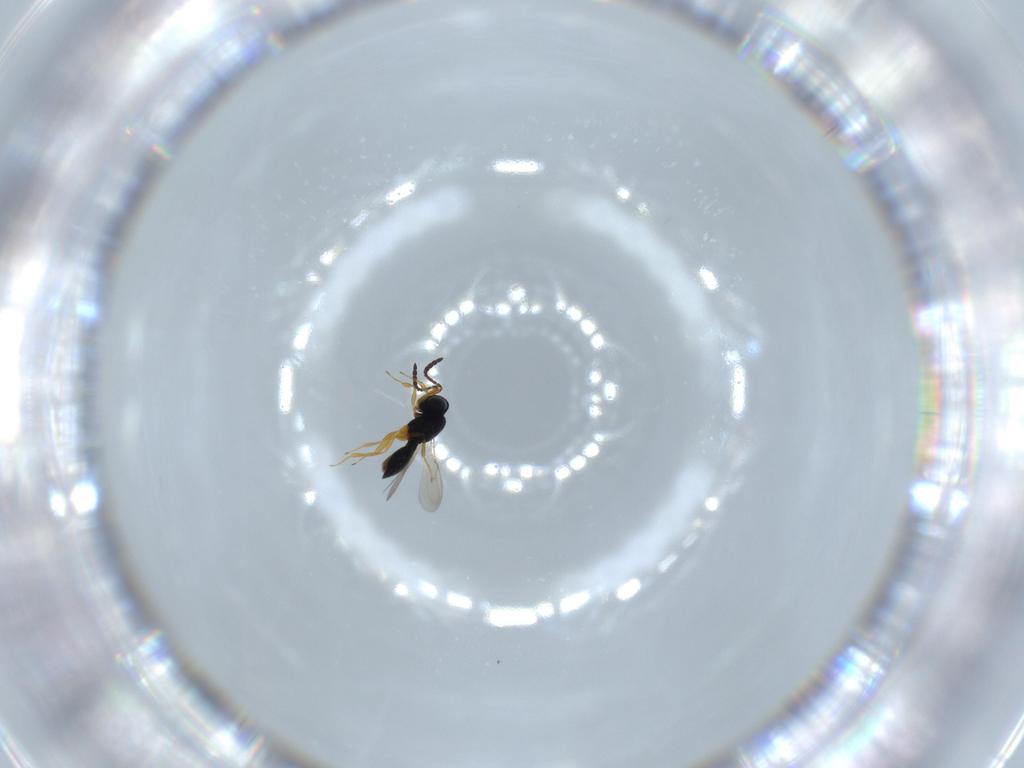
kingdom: Animalia
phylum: Arthropoda
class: Insecta
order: Hymenoptera
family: Scelionidae
